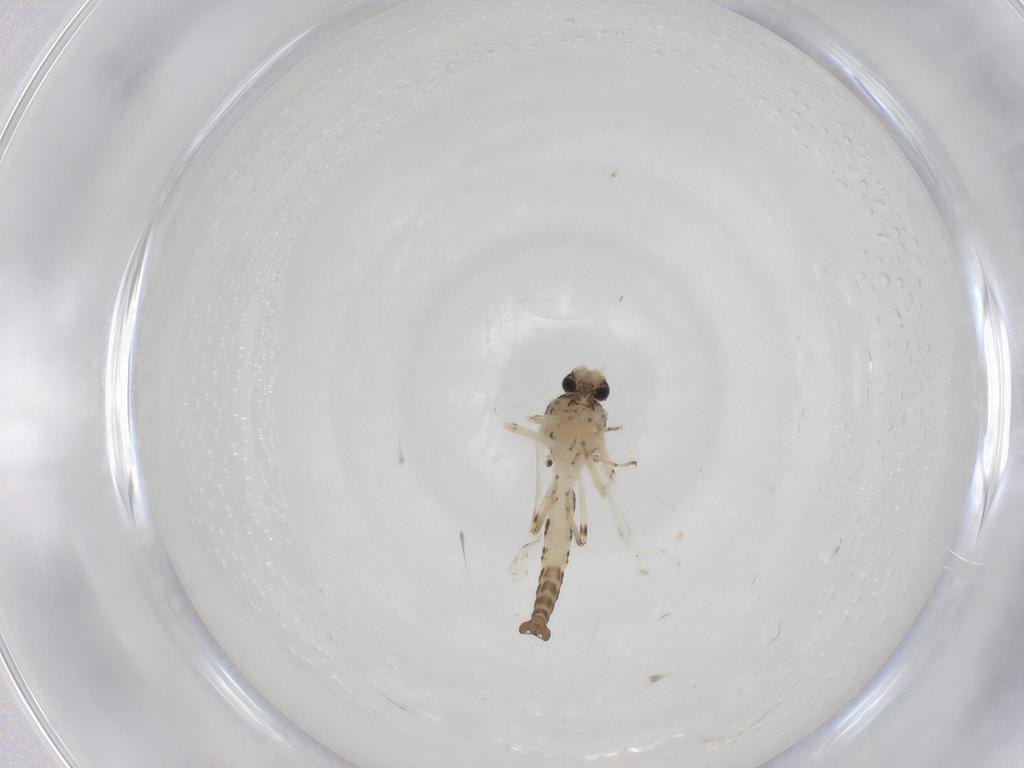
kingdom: Animalia
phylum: Arthropoda
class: Insecta
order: Diptera
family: Ceratopogonidae
